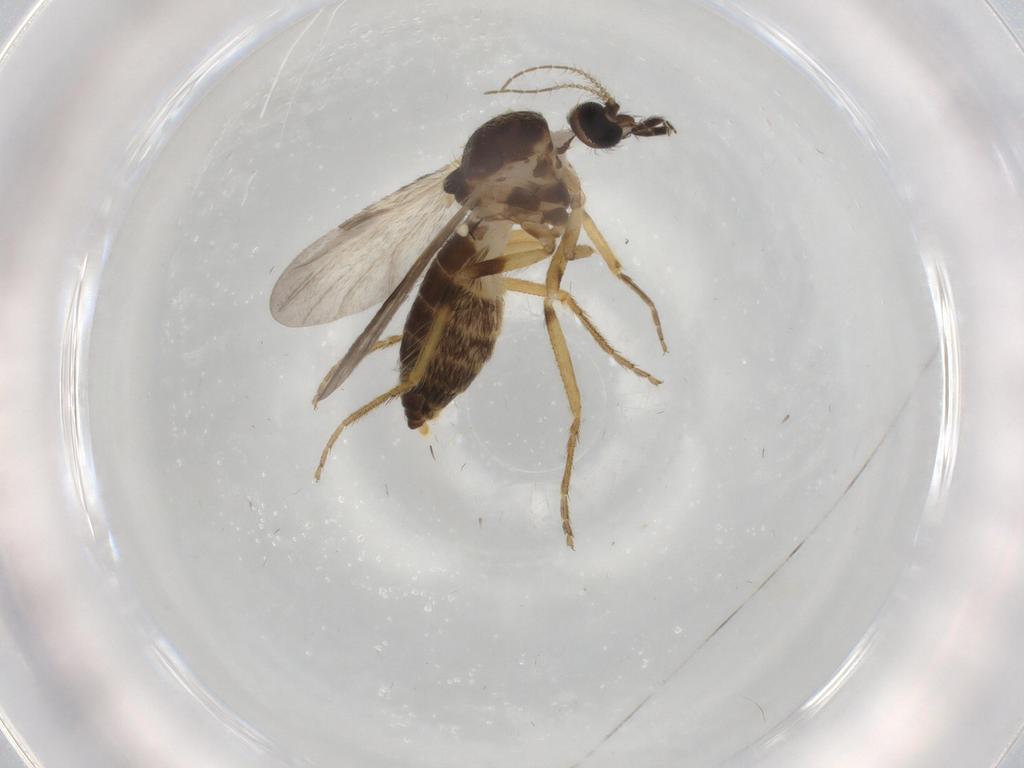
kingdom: Animalia
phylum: Arthropoda
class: Insecta
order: Diptera
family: Ceratopogonidae
